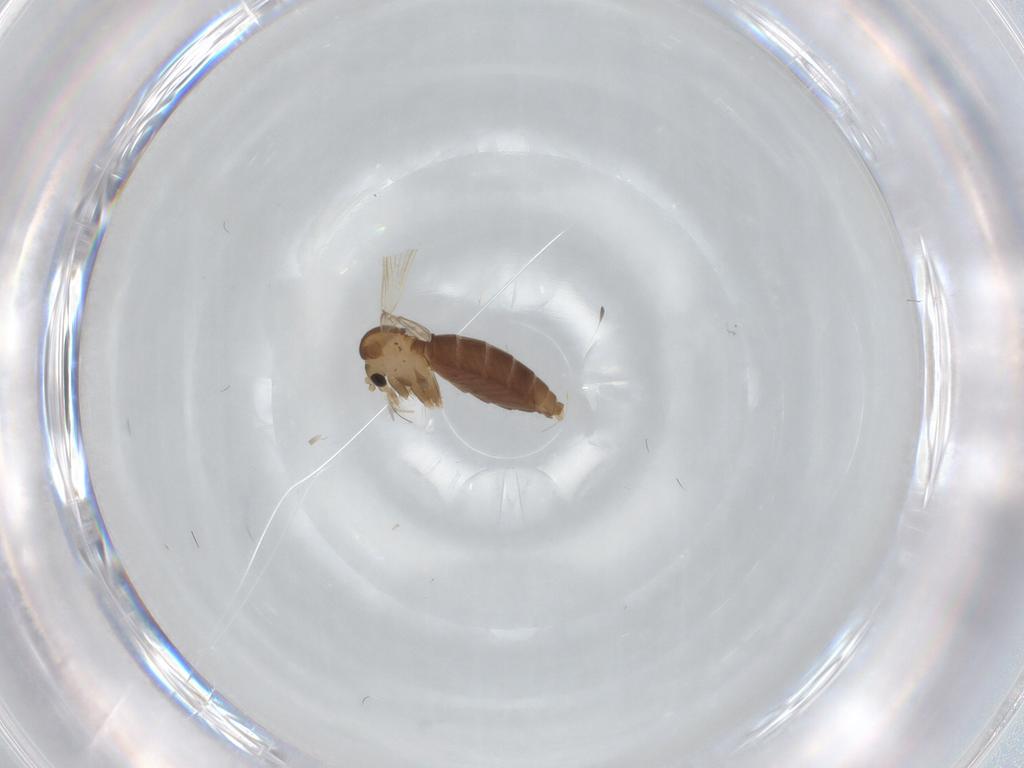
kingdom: Animalia
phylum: Arthropoda
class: Insecta
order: Diptera
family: Psychodidae
